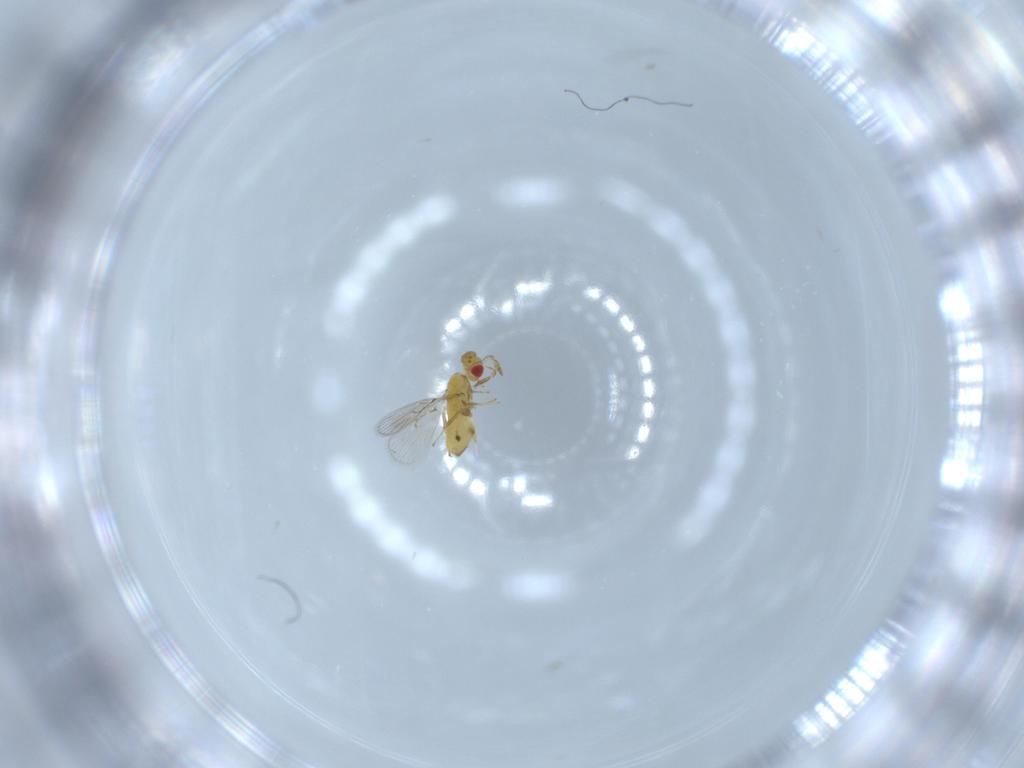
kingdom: Animalia
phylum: Arthropoda
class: Insecta
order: Hymenoptera
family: Trichogrammatidae
